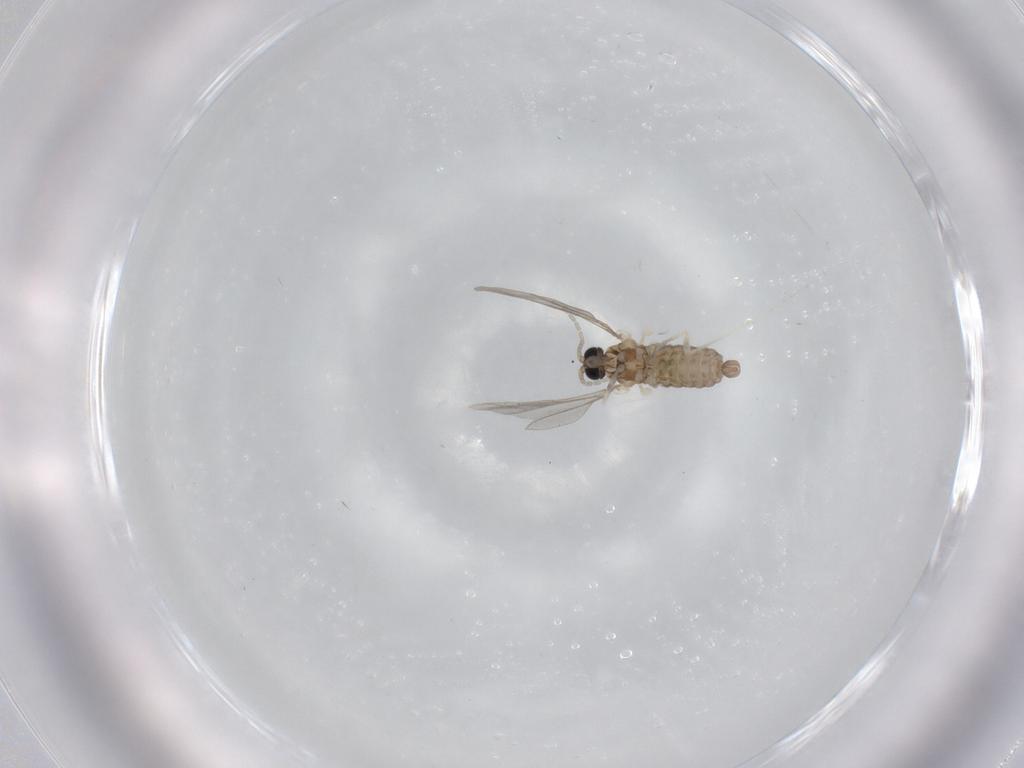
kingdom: Animalia
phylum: Arthropoda
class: Insecta
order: Diptera
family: Cecidomyiidae
